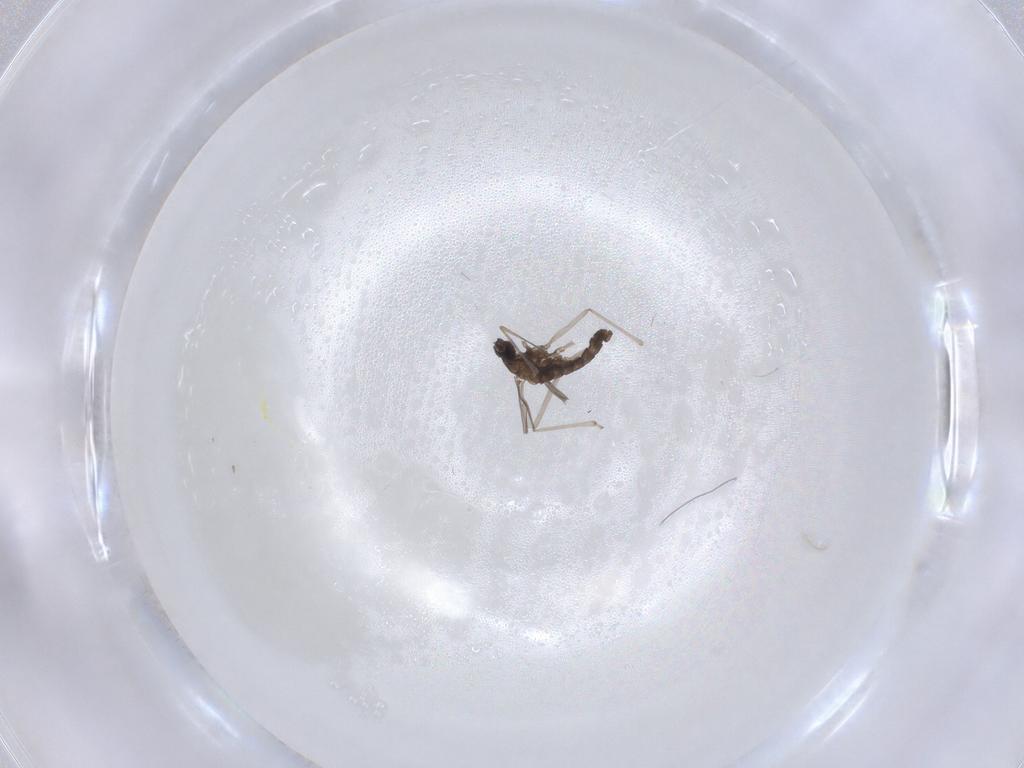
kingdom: Animalia
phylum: Arthropoda
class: Insecta
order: Diptera
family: Cecidomyiidae
